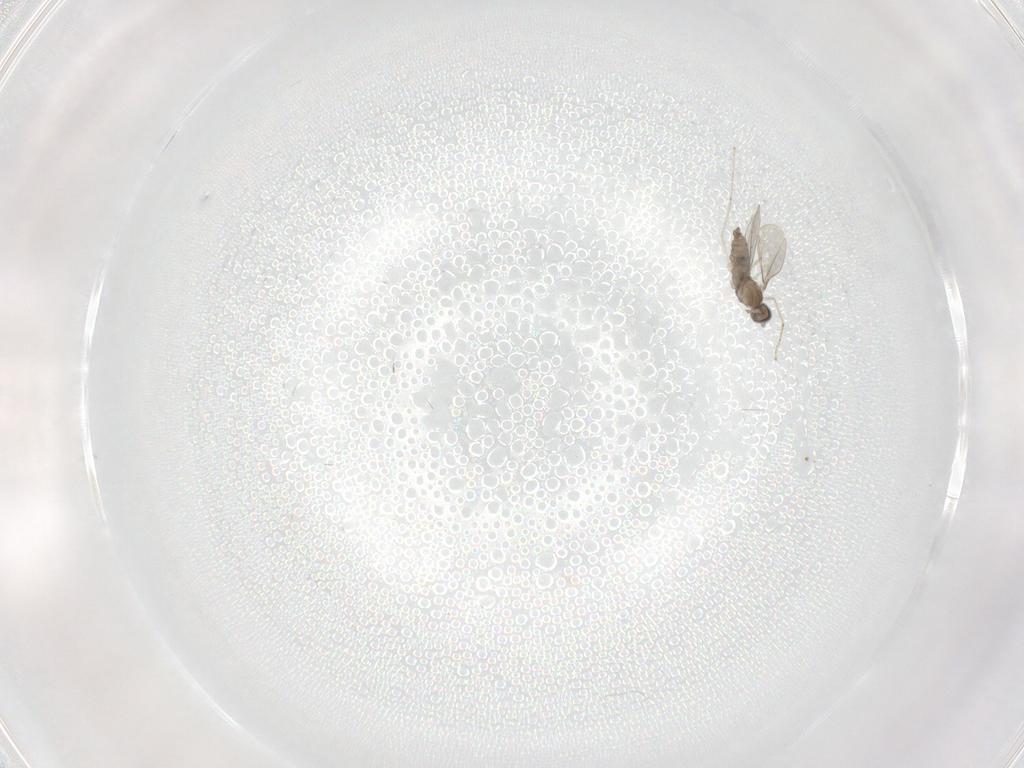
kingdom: Animalia
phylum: Arthropoda
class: Insecta
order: Diptera
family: Cecidomyiidae
